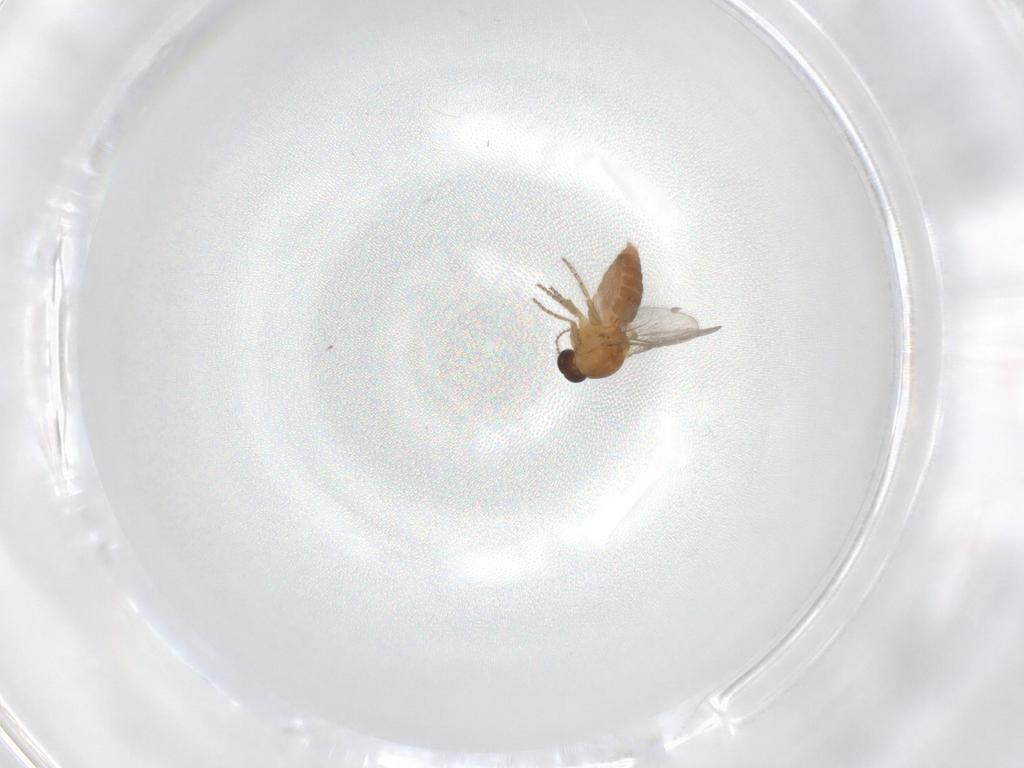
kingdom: Animalia
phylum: Arthropoda
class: Insecta
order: Diptera
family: Ceratopogonidae
